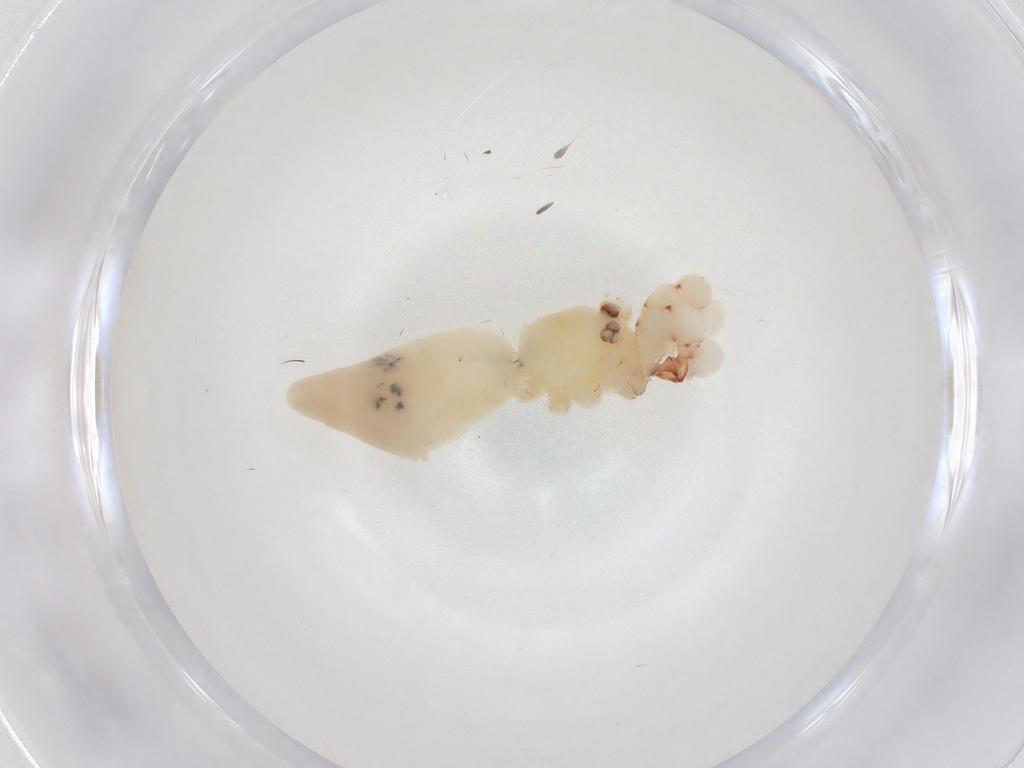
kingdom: Animalia
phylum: Arthropoda
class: Arachnida
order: Araneae
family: Pholcidae
